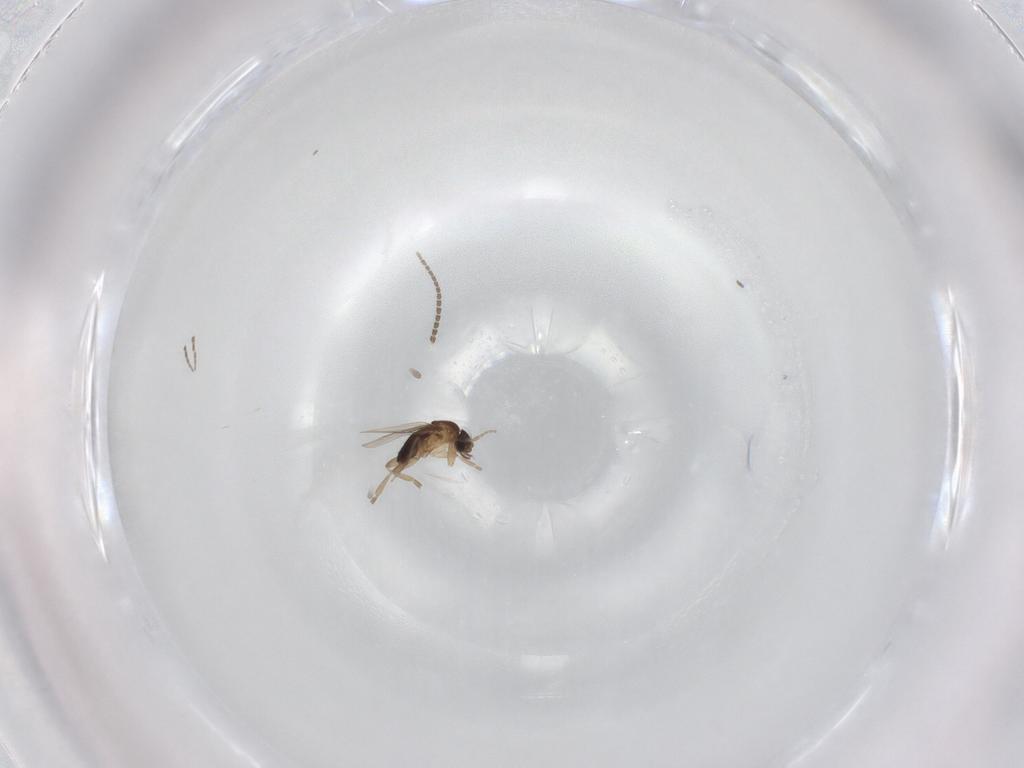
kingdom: Animalia
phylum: Arthropoda
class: Insecta
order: Diptera
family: Phoridae
